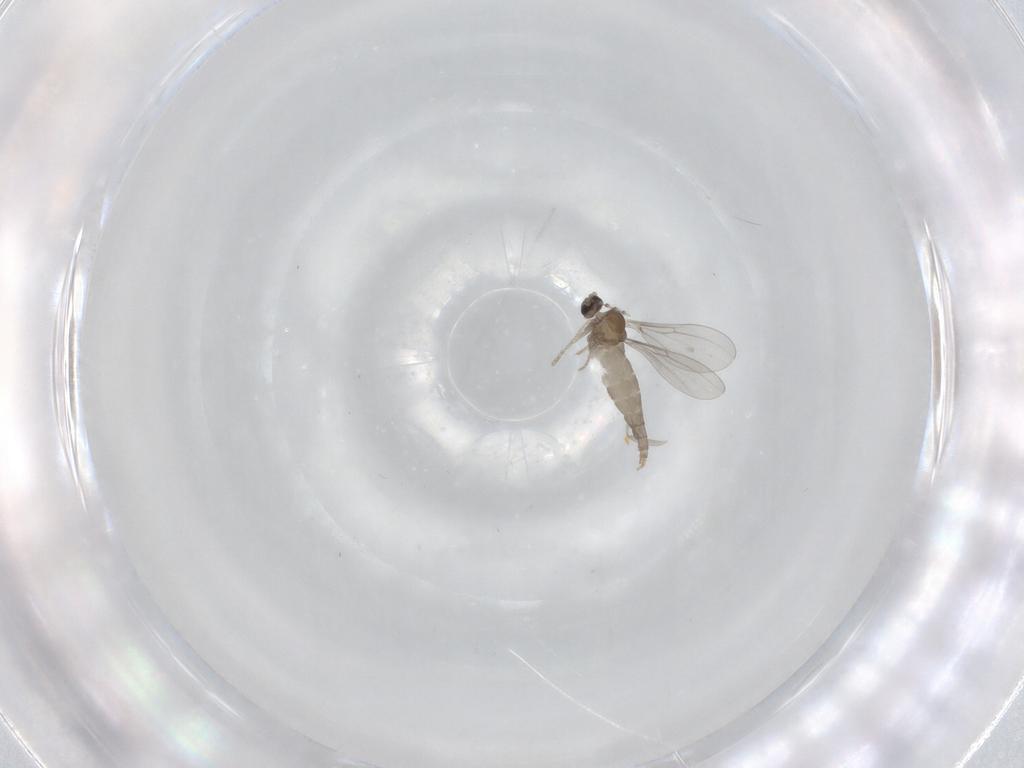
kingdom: Animalia
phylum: Arthropoda
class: Insecta
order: Diptera
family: Cecidomyiidae
